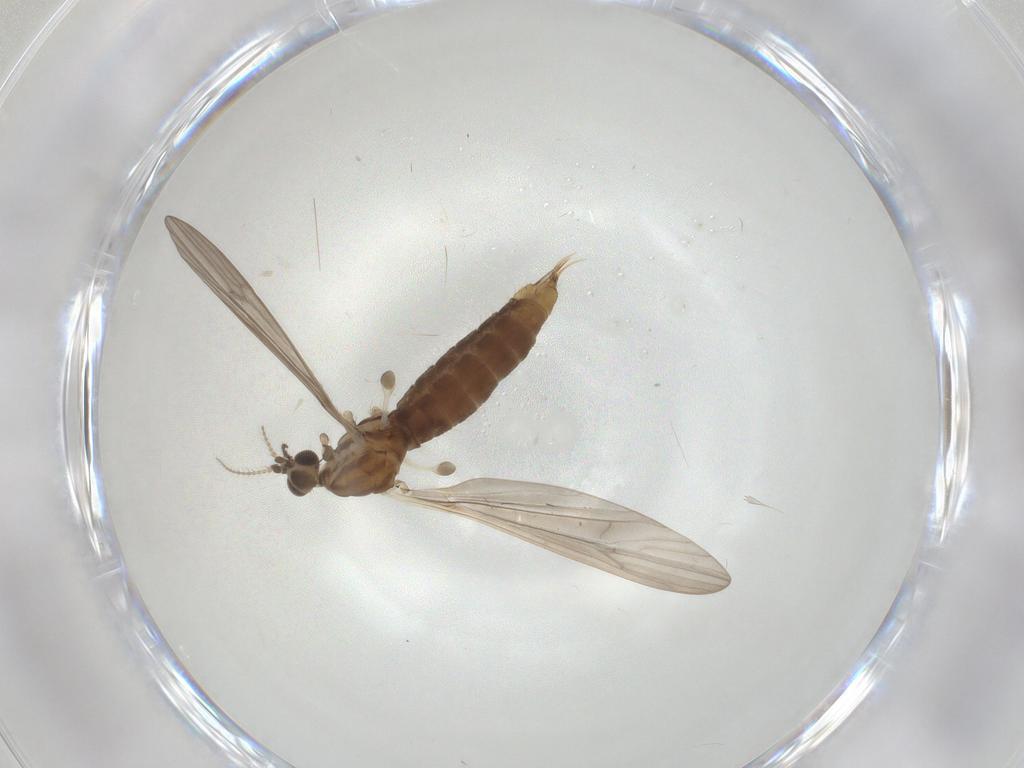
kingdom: Animalia
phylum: Arthropoda
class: Insecta
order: Diptera
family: Limoniidae
